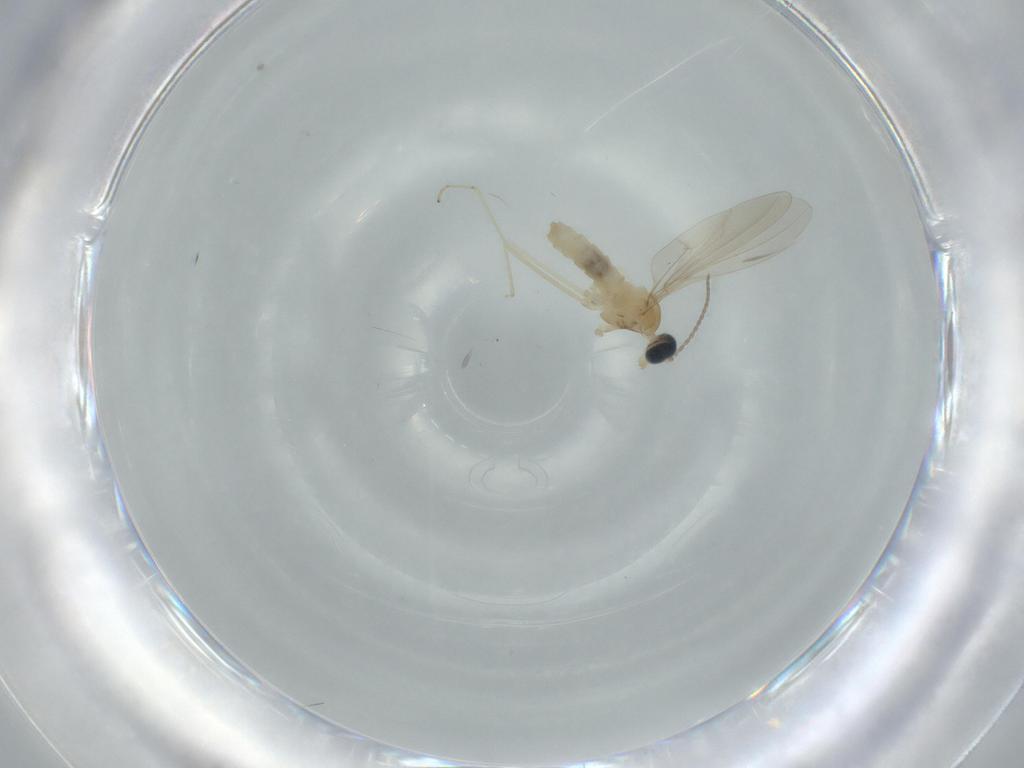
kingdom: Animalia
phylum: Arthropoda
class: Insecta
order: Diptera
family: Cecidomyiidae
